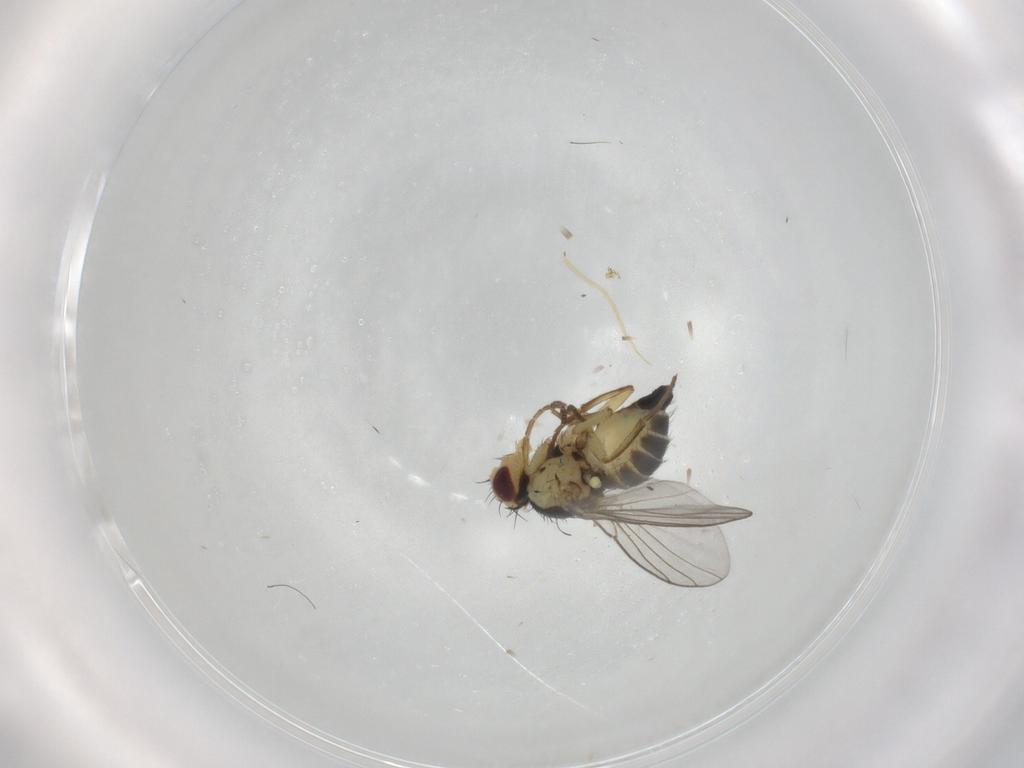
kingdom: Animalia
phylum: Arthropoda
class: Insecta
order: Diptera
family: Agromyzidae
